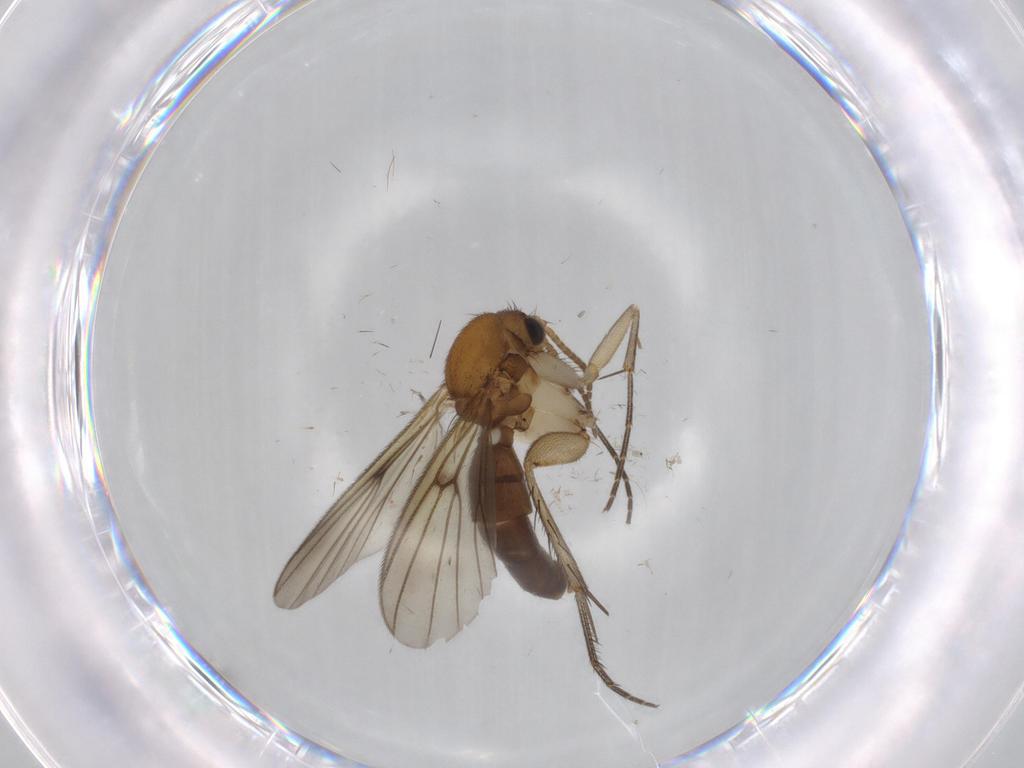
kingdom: Animalia
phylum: Arthropoda
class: Insecta
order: Diptera
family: Mycetophilidae
